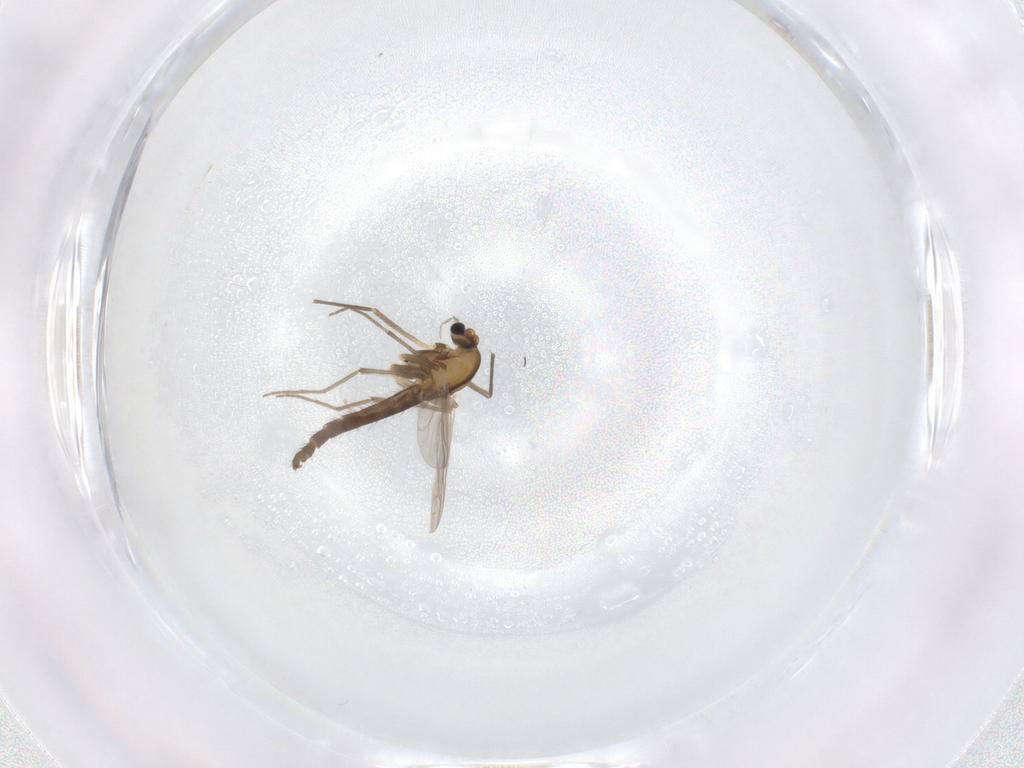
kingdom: Animalia
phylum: Arthropoda
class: Insecta
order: Diptera
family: Chironomidae
